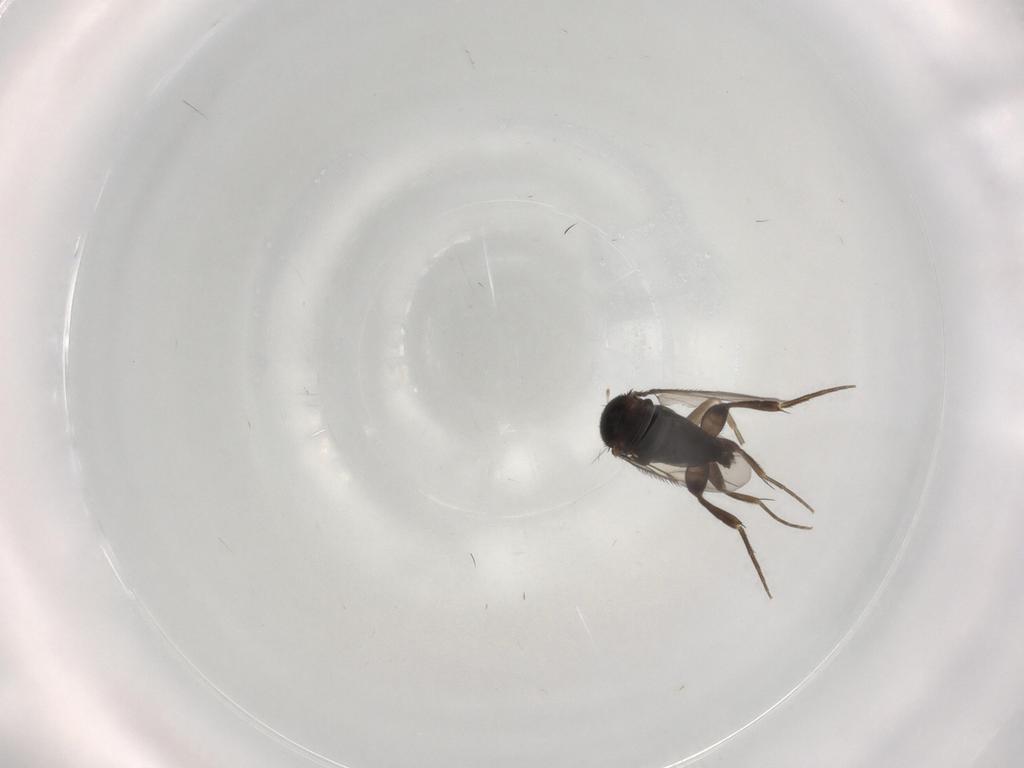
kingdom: Animalia
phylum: Arthropoda
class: Insecta
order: Diptera
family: Phoridae
